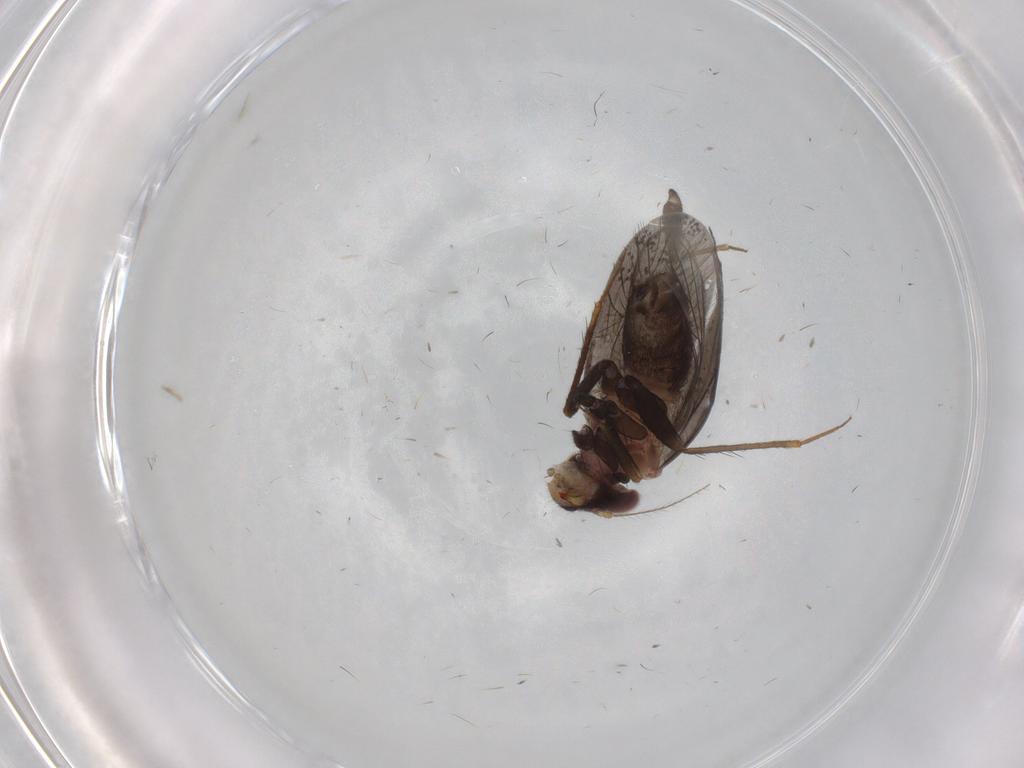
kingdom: Animalia
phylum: Arthropoda
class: Insecta
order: Psocodea
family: Lepidopsocidae
